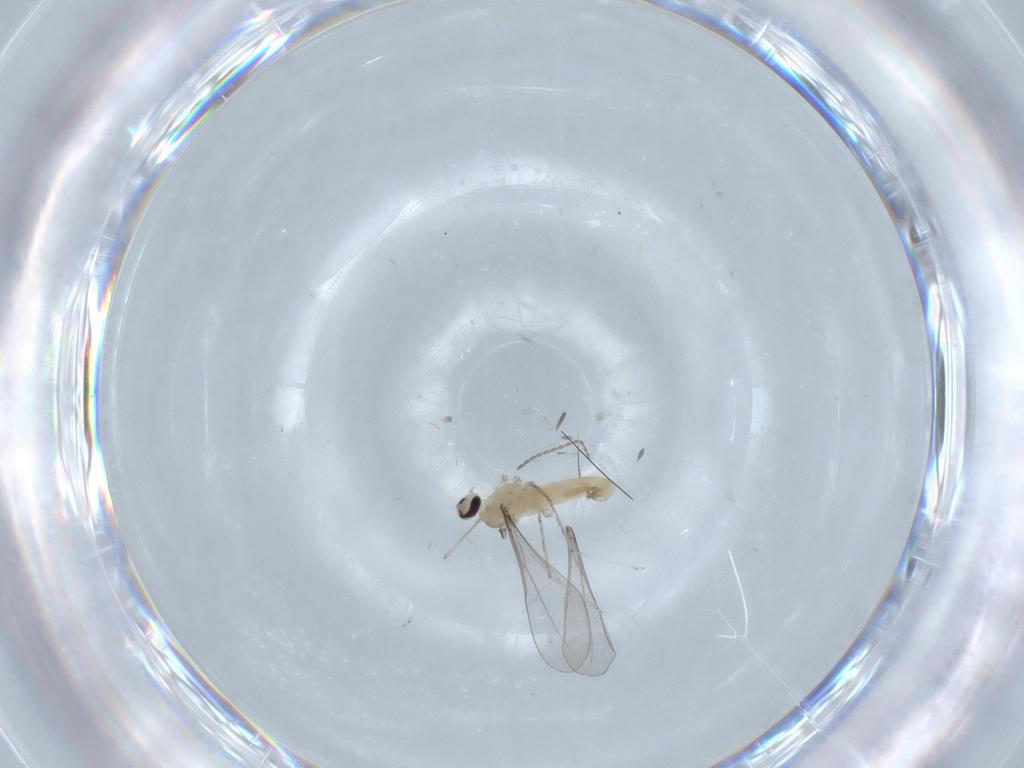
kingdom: Animalia
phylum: Arthropoda
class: Insecta
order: Diptera
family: Cecidomyiidae
